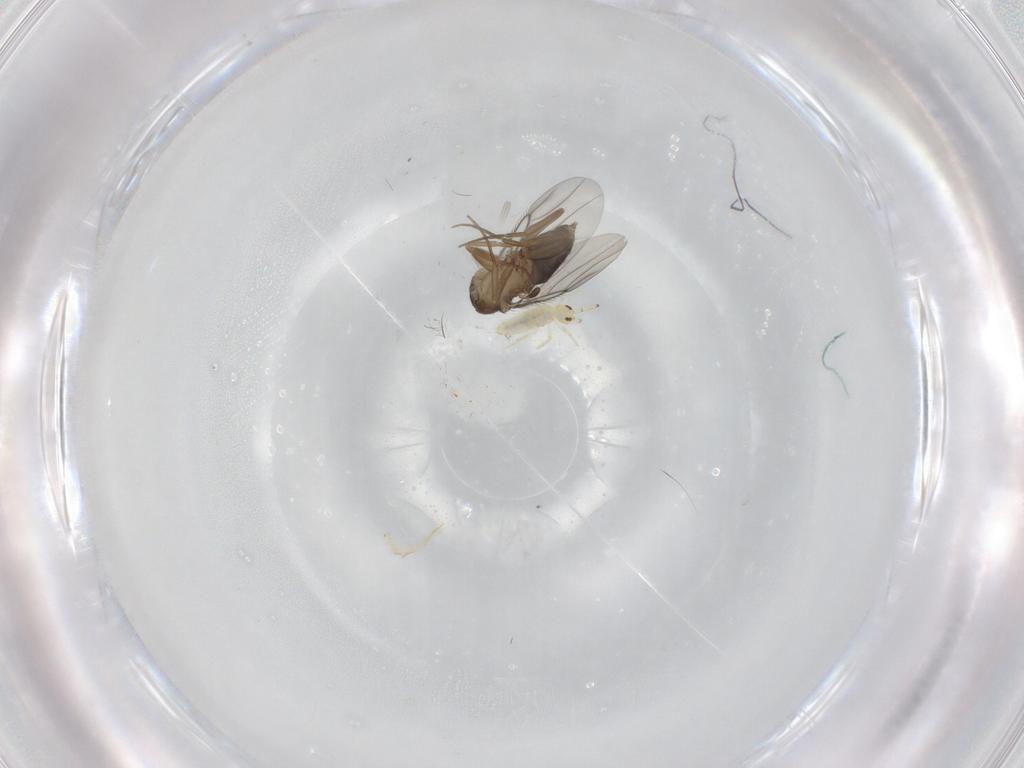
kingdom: Animalia
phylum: Arthropoda
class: Insecta
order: Diptera
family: Phoridae
